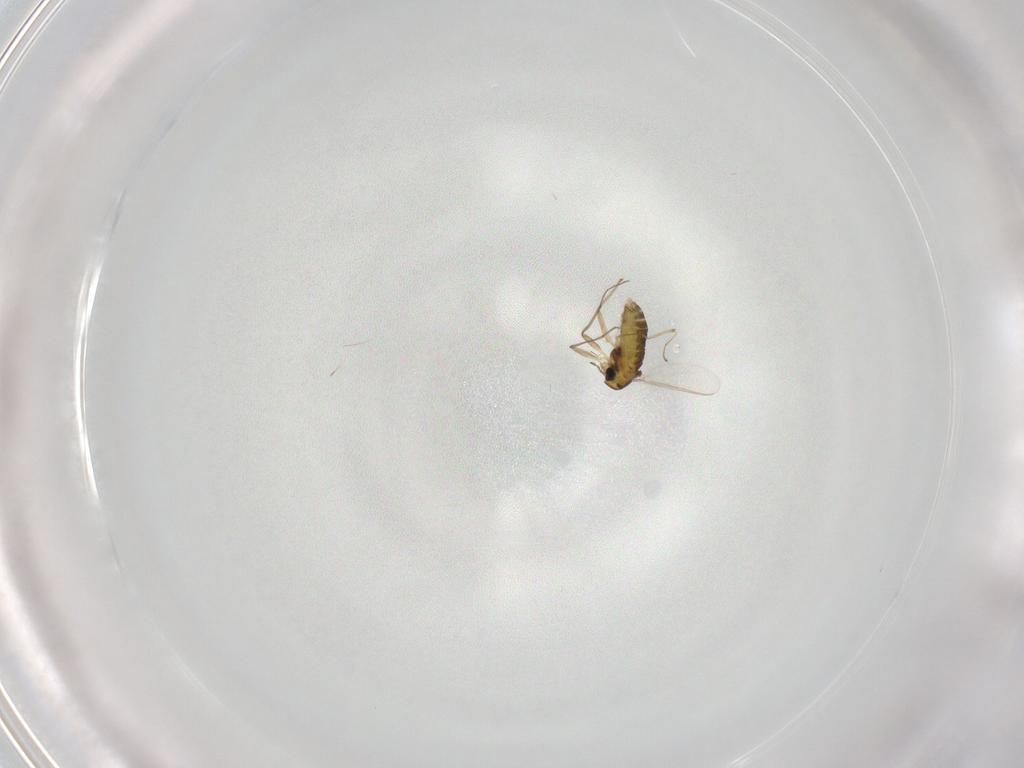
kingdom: Animalia
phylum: Arthropoda
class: Insecta
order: Diptera
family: Chironomidae
